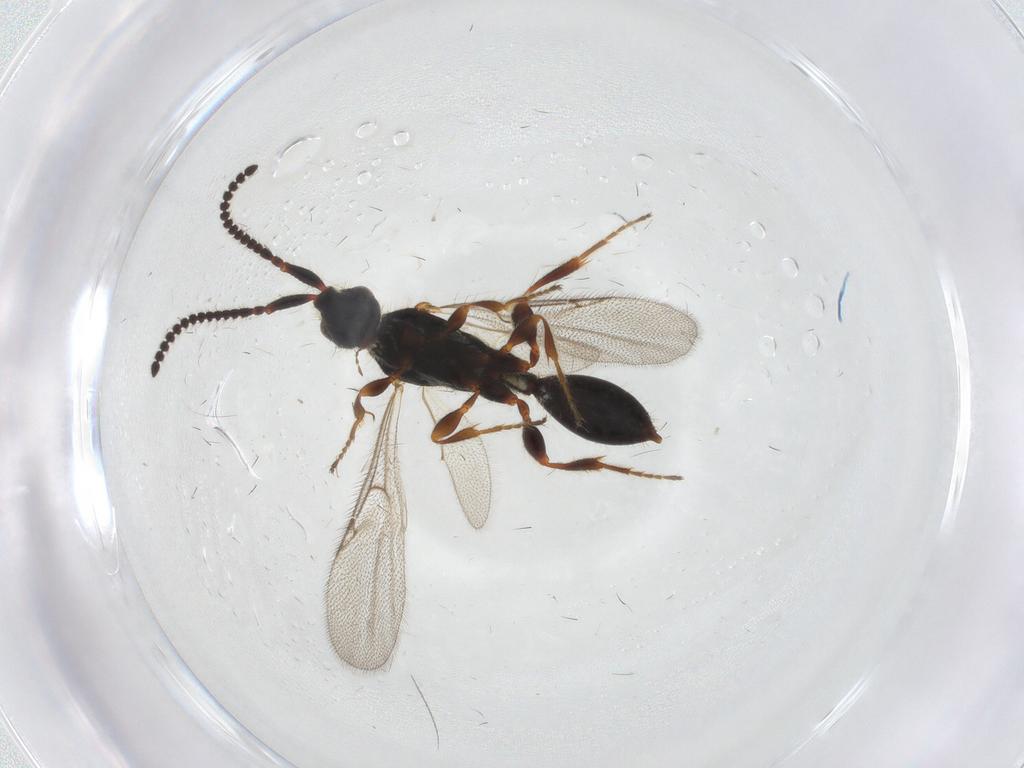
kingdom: Animalia
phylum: Arthropoda
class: Insecta
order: Hymenoptera
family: Diapriidae
